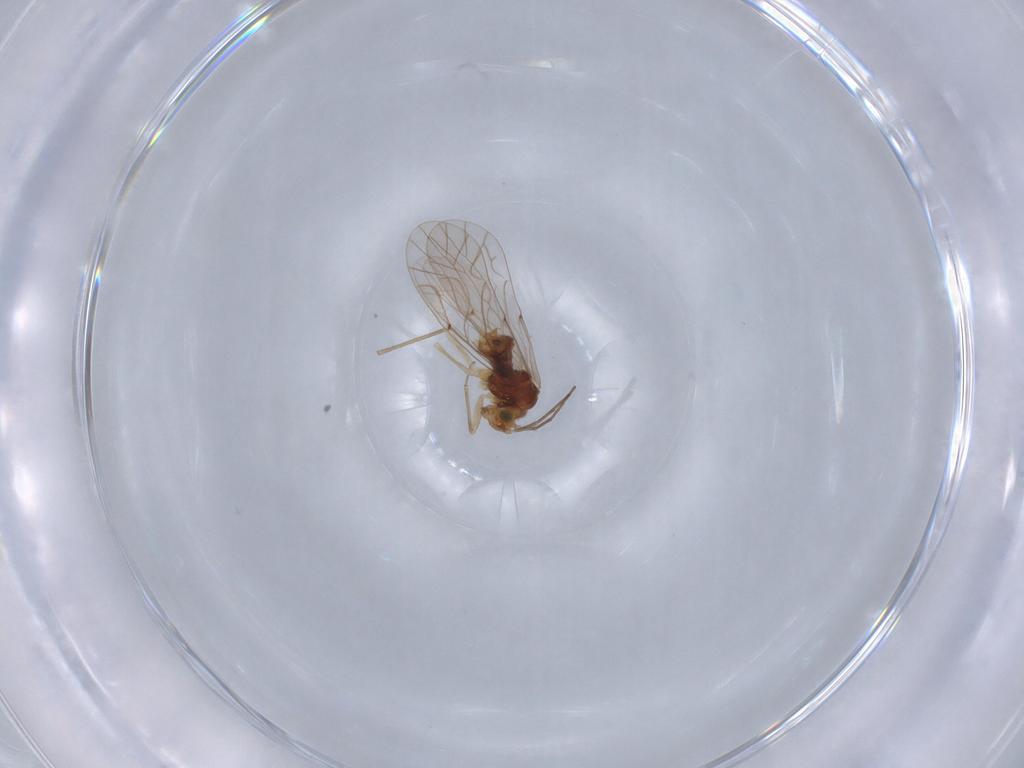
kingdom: Animalia
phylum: Arthropoda
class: Insecta
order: Psocodea
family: Lachesillidae
